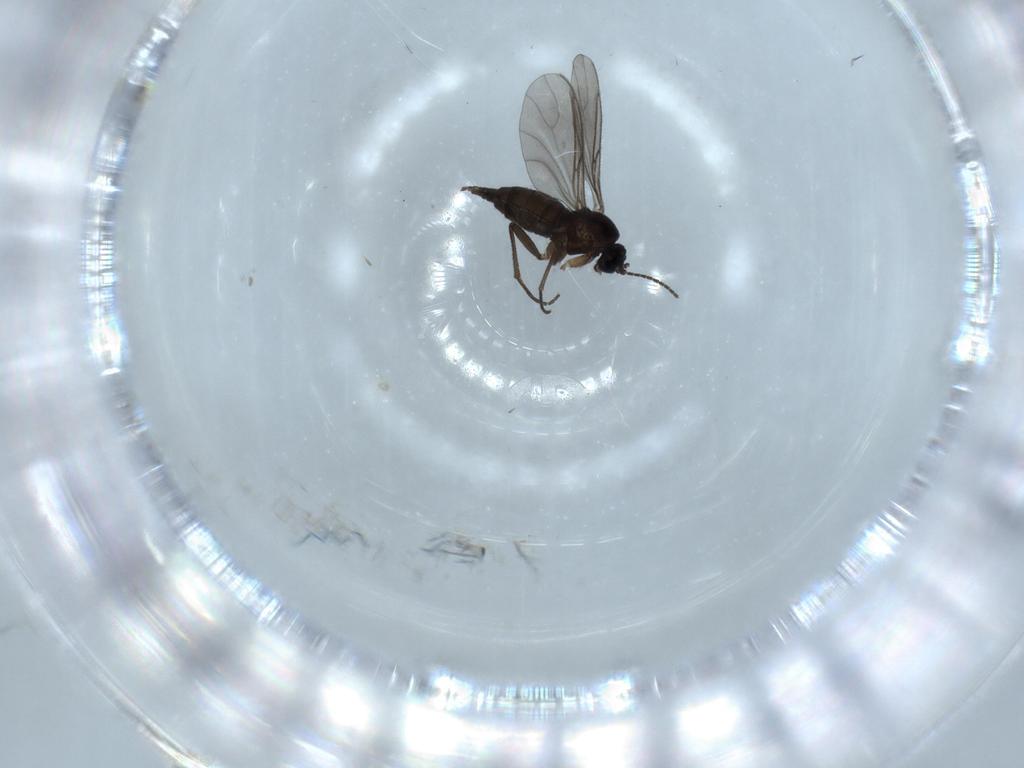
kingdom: Animalia
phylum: Arthropoda
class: Insecta
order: Diptera
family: Sciaridae
